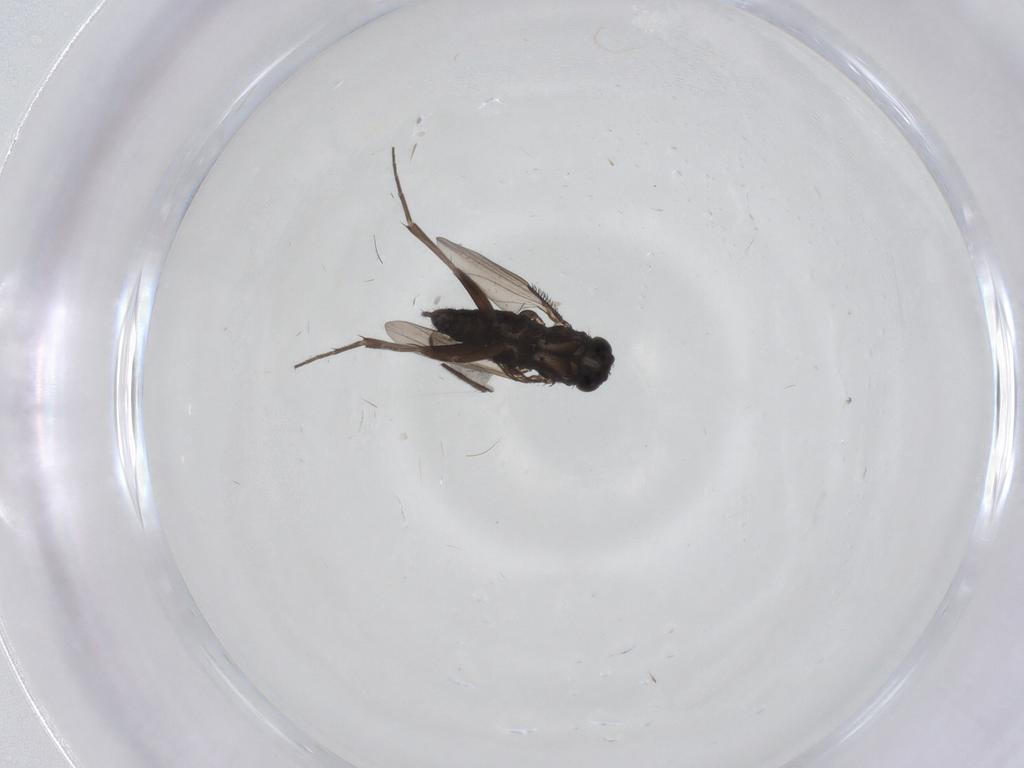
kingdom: Animalia
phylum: Arthropoda
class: Insecta
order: Diptera
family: Phoridae
